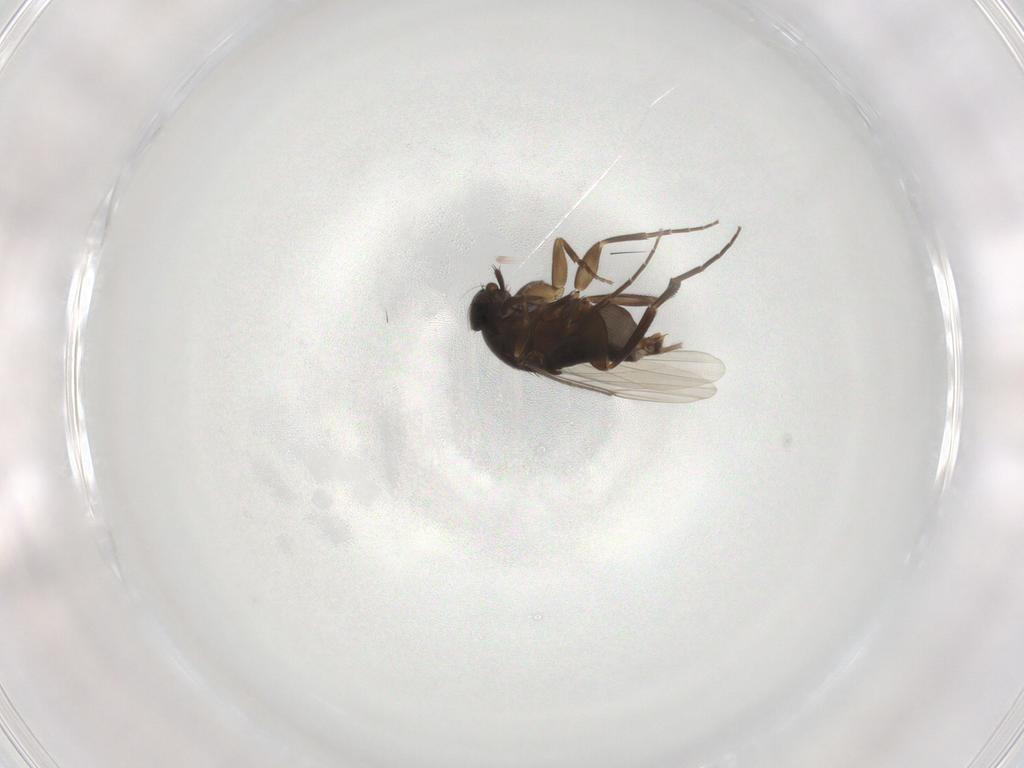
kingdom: Animalia
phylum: Arthropoda
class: Insecta
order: Diptera
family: Phoridae
